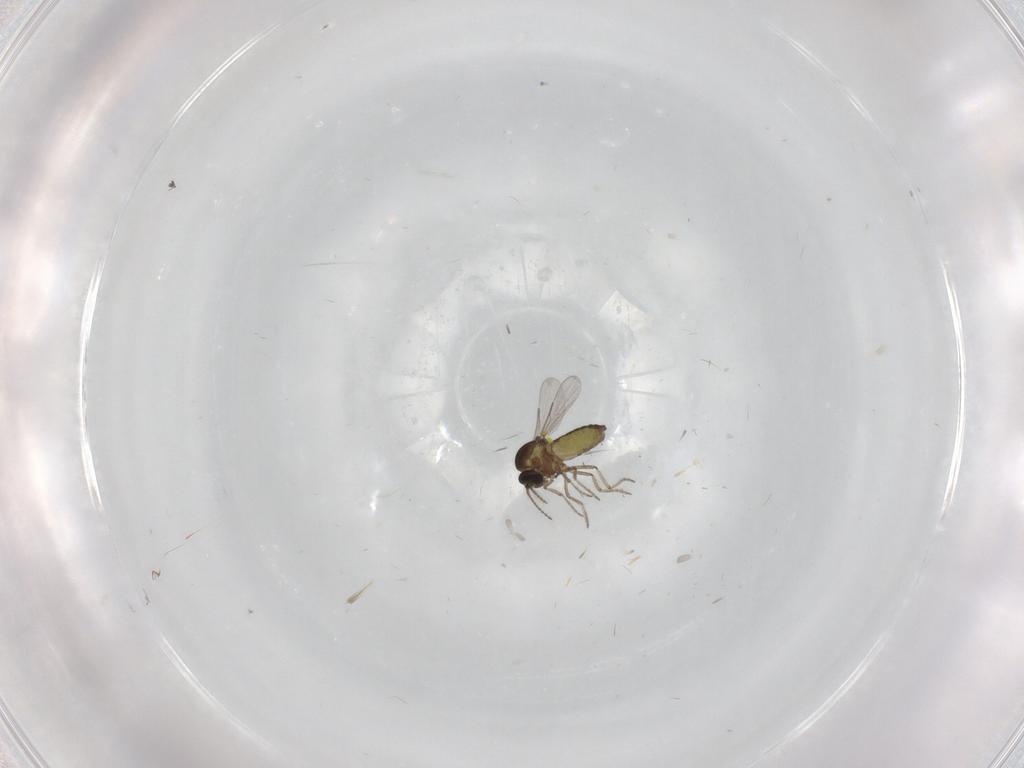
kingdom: Animalia
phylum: Arthropoda
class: Insecta
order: Diptera
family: Ceratopogonidae
